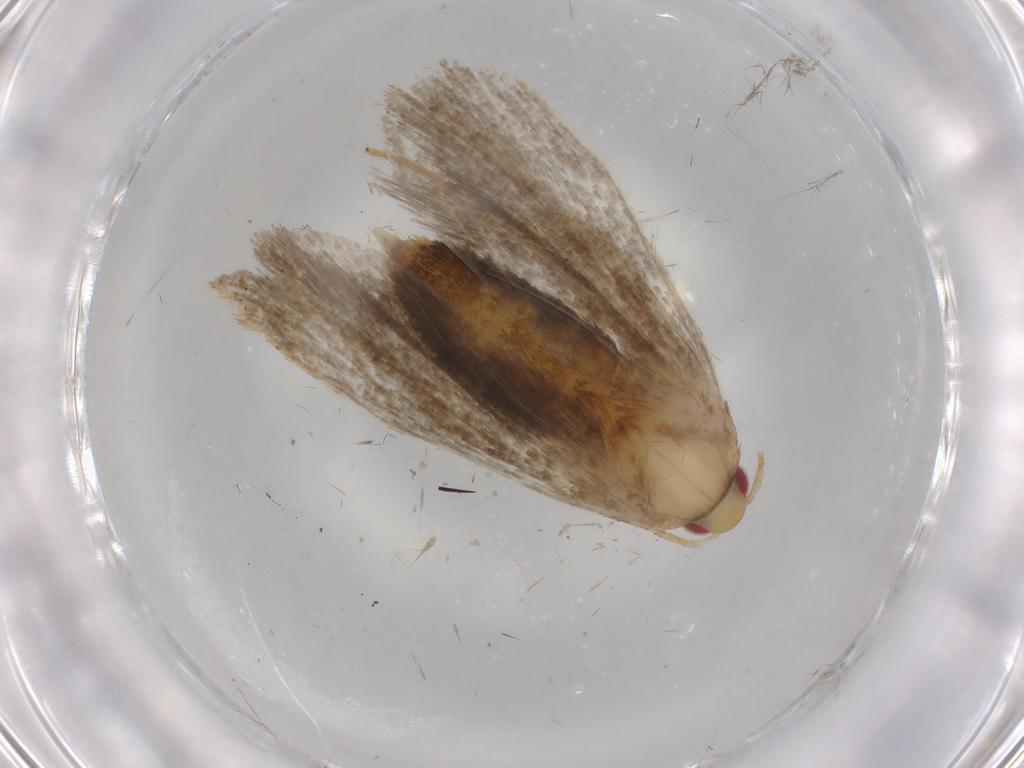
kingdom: Animalia
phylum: Arthropoda
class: Insecta
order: Lepidoptera
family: Oecophoridae
